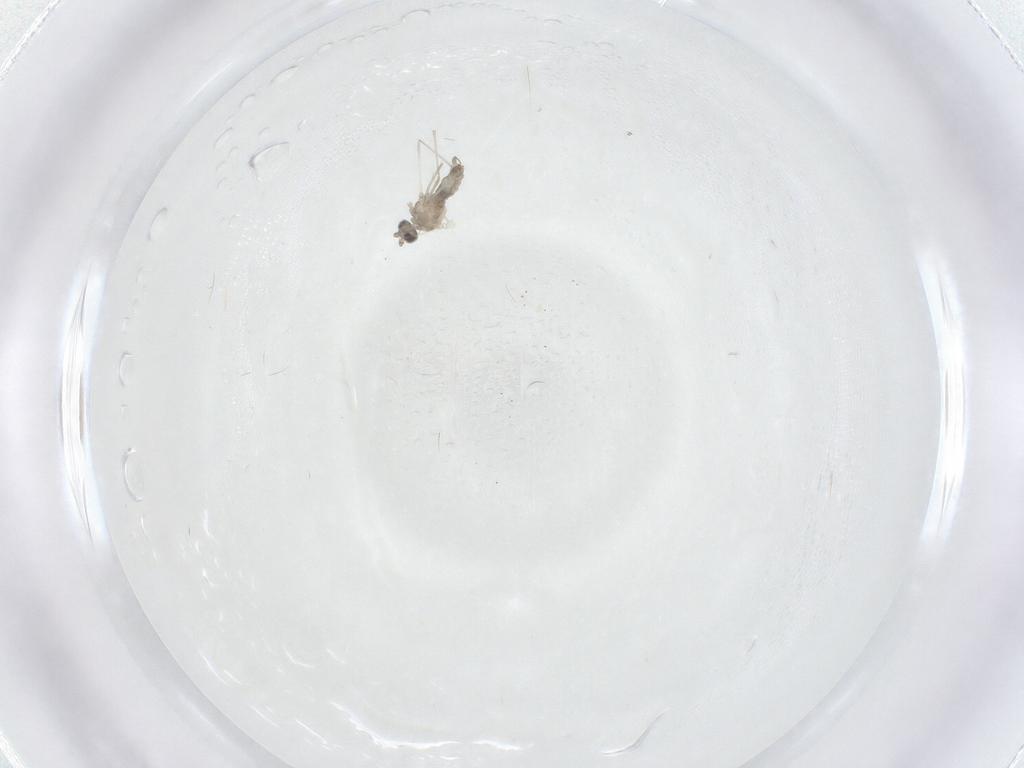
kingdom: Animalia
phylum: Arthropoda
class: Insecta
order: Diptera
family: Cecidomyiidae
